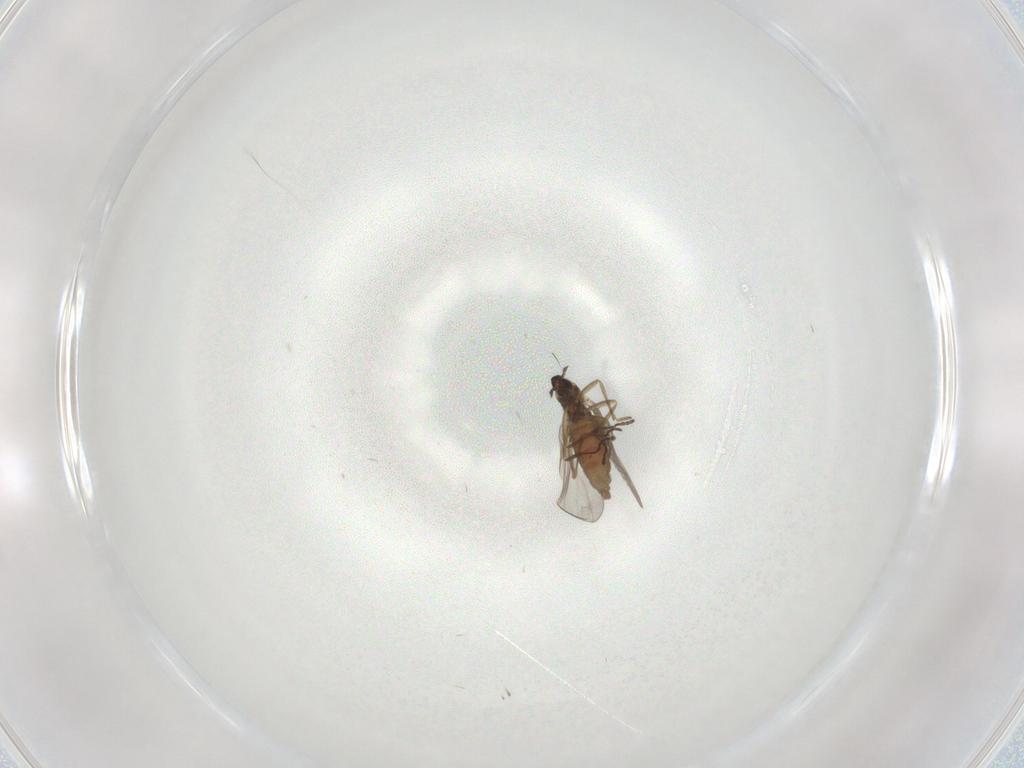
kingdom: Animalia
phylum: Arthropoda
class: Insecta
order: Diptera
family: Cecidomyiidae
